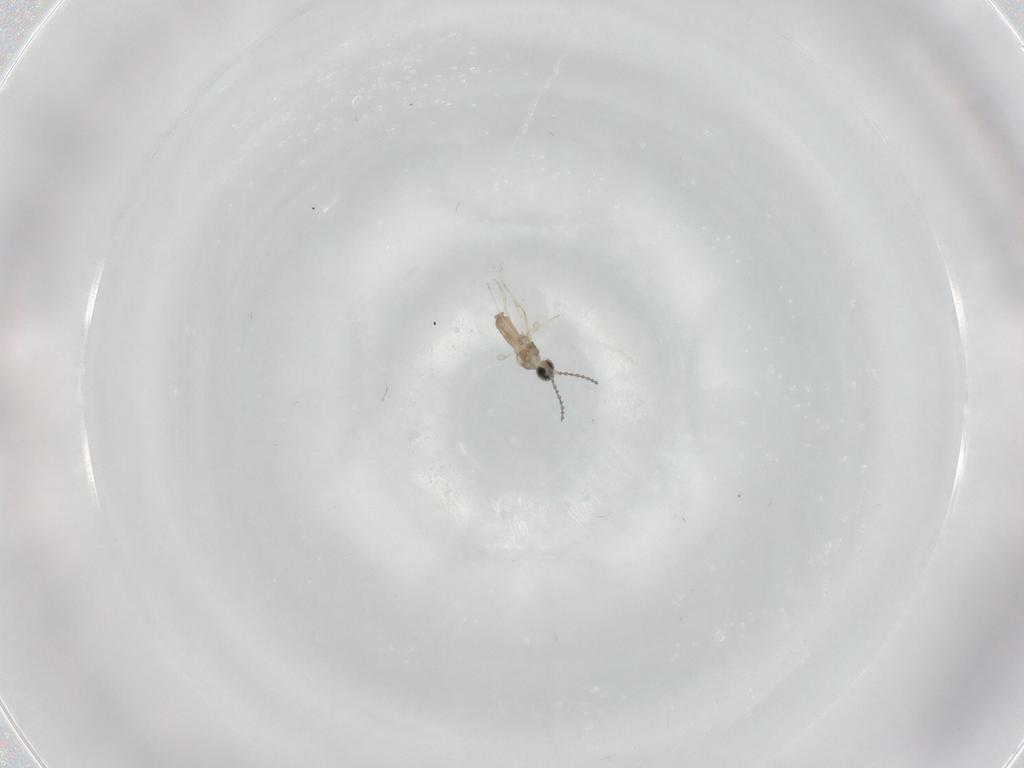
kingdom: Animalia
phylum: Arthropoda
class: Insecta
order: Diptera
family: Cecidomyiidae
